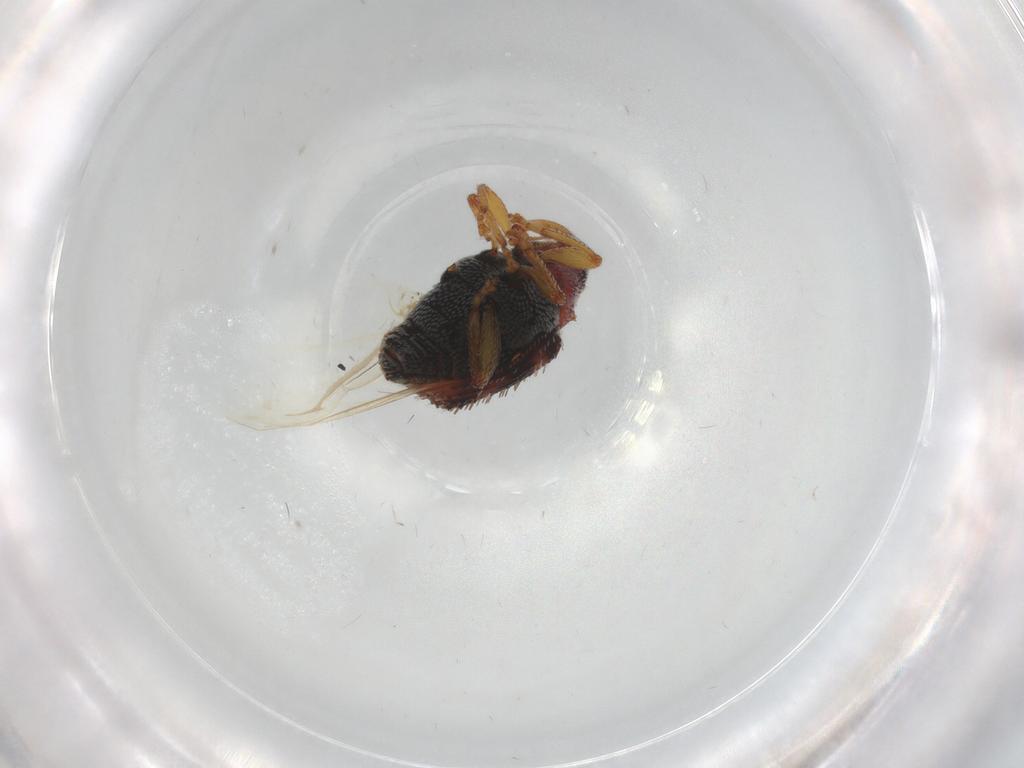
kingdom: Animalia
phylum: Arthropoda
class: Insecta
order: Coleoptera
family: Curculionidae
